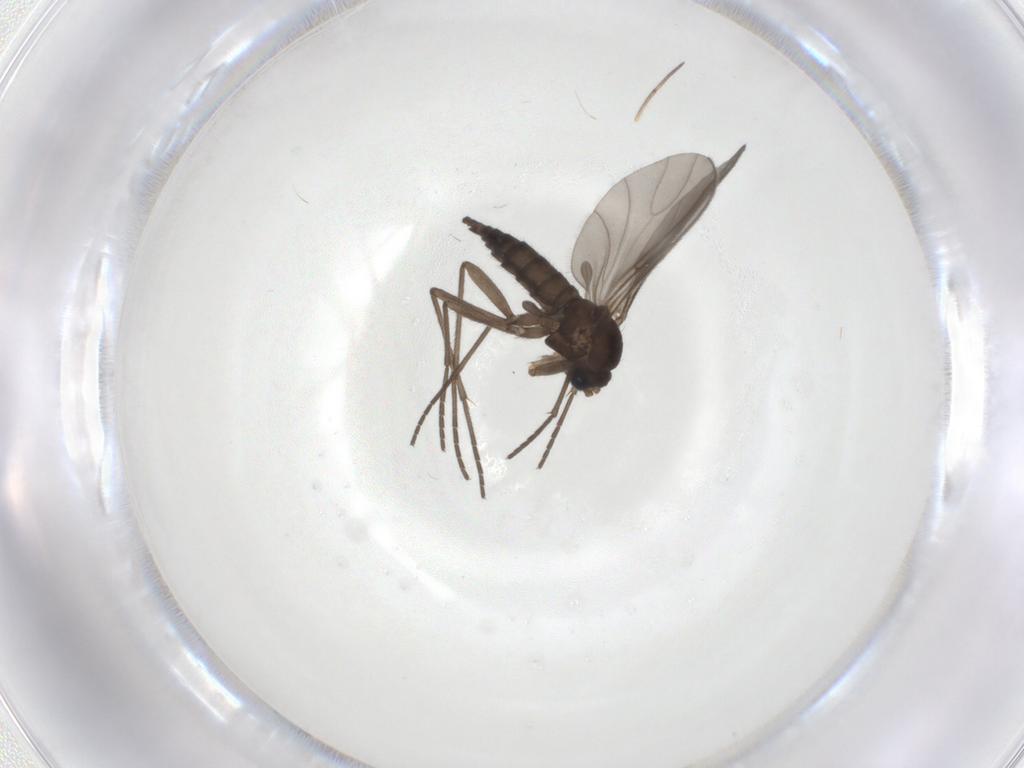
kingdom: Animalia
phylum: Arthropoda
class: Insecta
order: Diptera
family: Sciaridae
